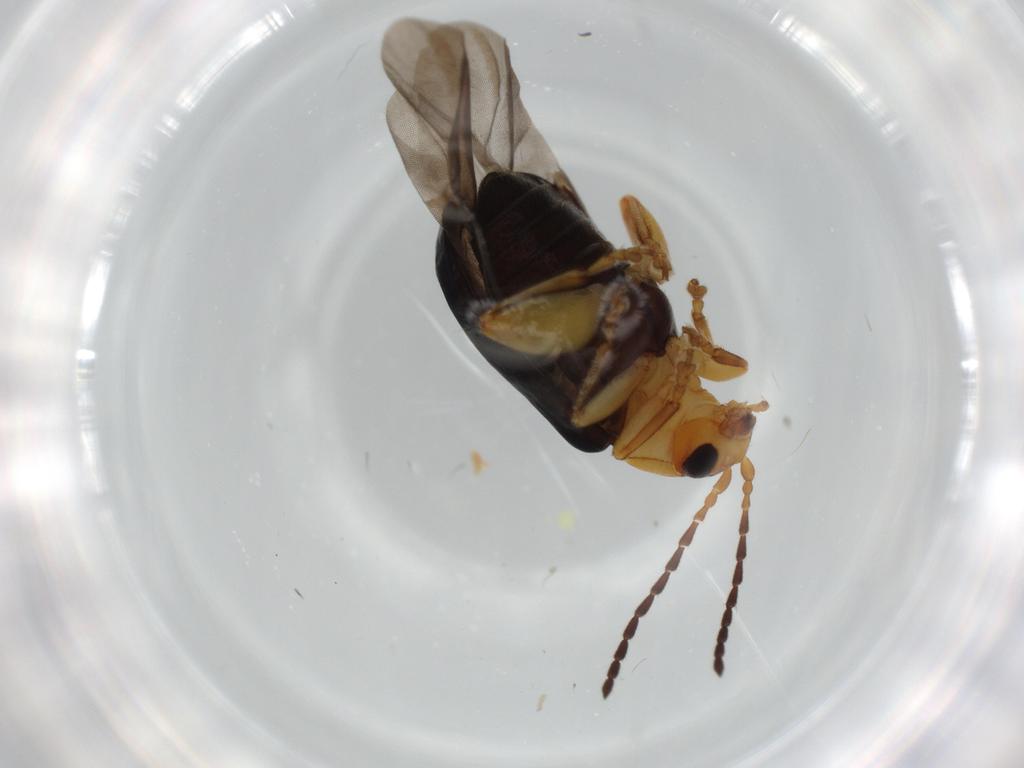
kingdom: Animalia
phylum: Arthropoda
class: Insecta
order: Coleoptera
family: Chrysomelidae
